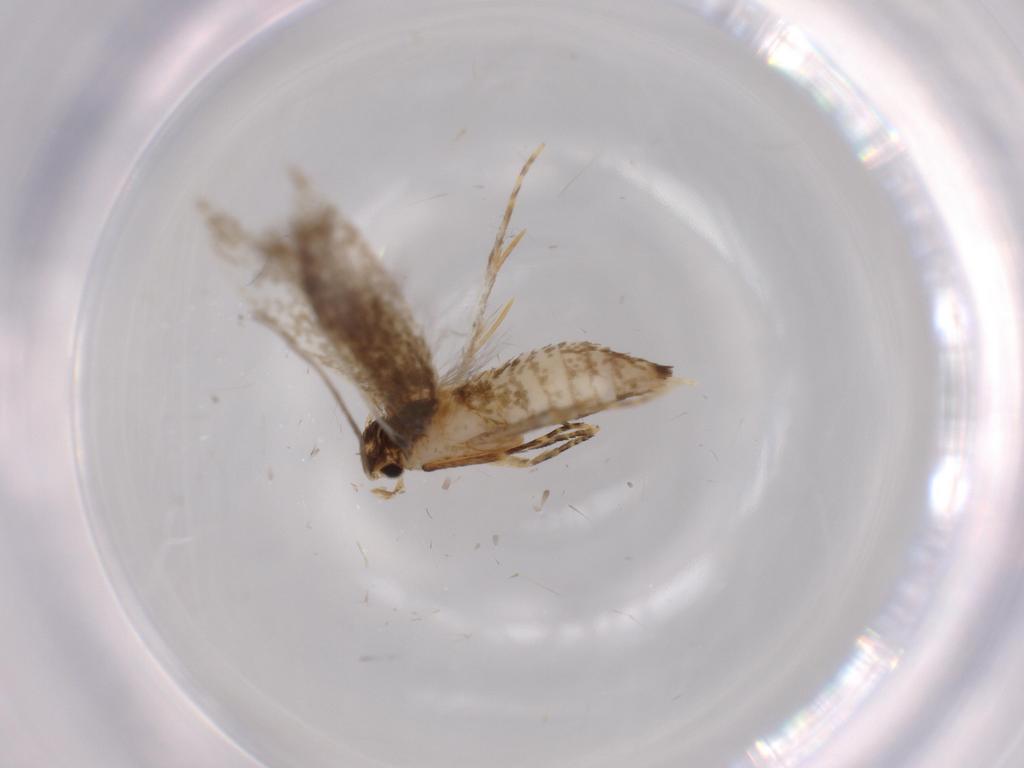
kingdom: Animalia
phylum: Arthropoda
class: Insecta
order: Lepidoptera
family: Tineidae
